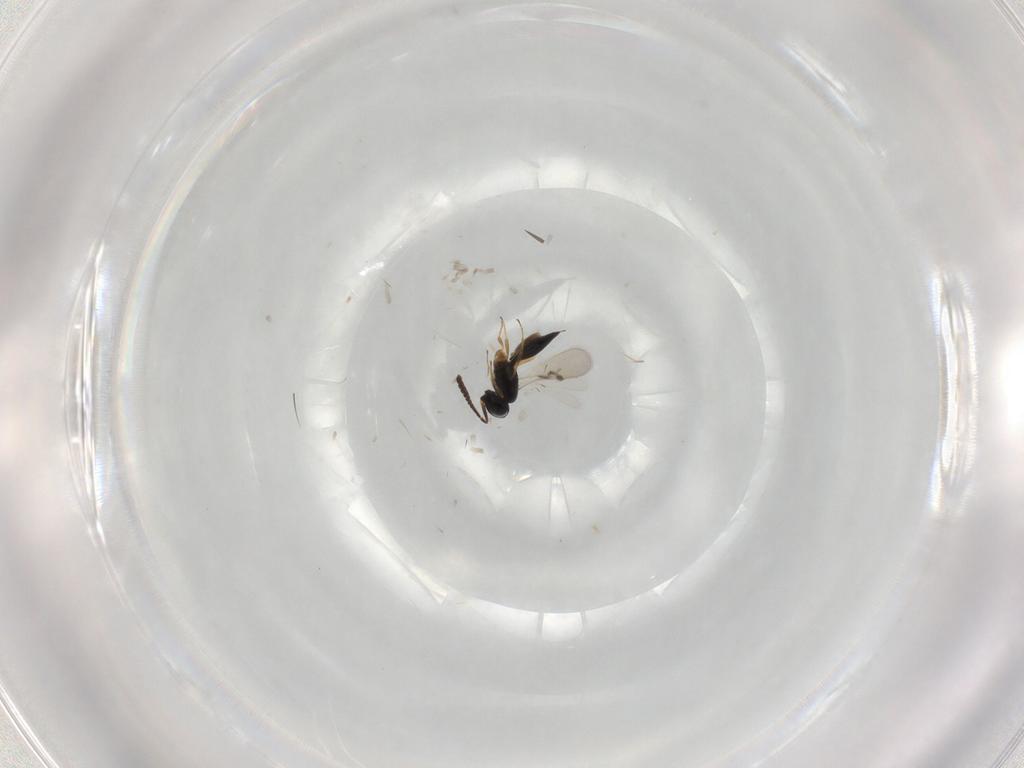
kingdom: Animalia
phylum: Arthropoda
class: Insecta
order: Hymenoptera
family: Scelionidae
